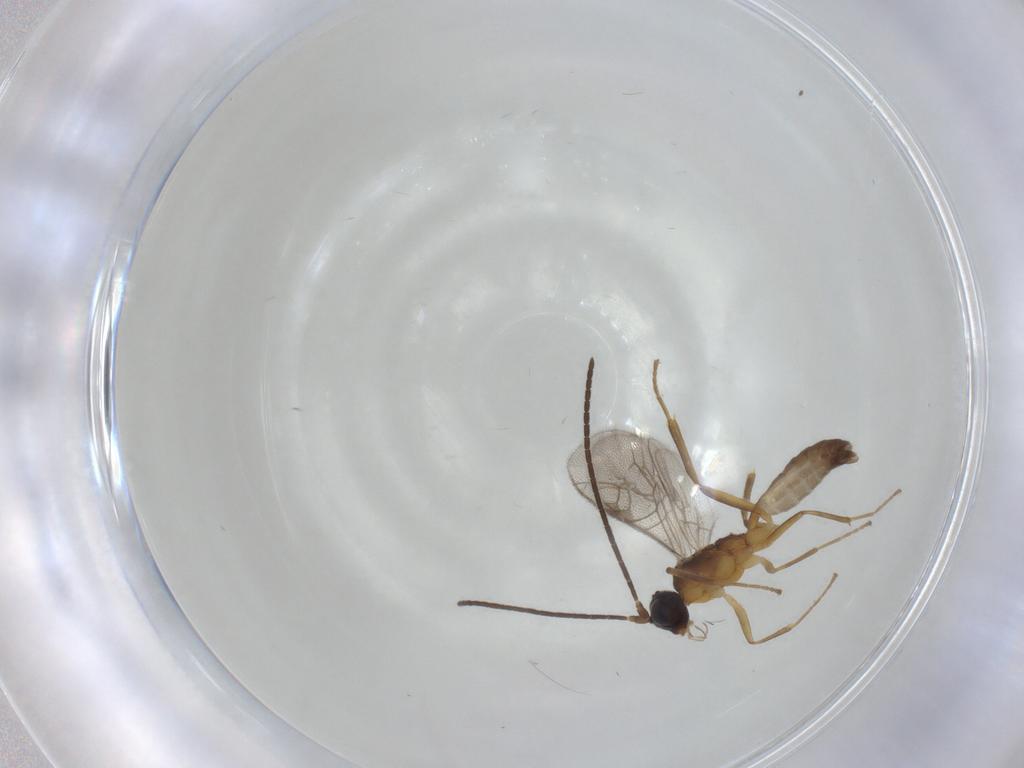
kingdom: Animalia
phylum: Arthropoda
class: Insecta
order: Hymenoptera
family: Ichneumonidae
